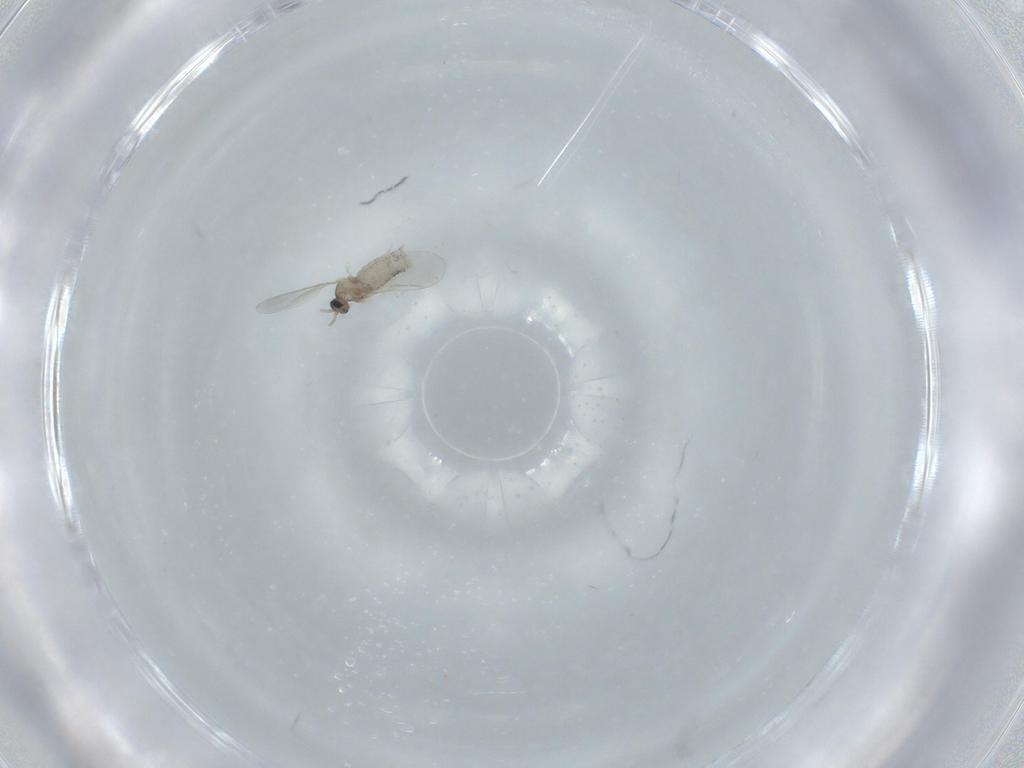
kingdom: Animalia
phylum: Arthropoda
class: Insecta
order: Diptera
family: Cecidomyiidae
